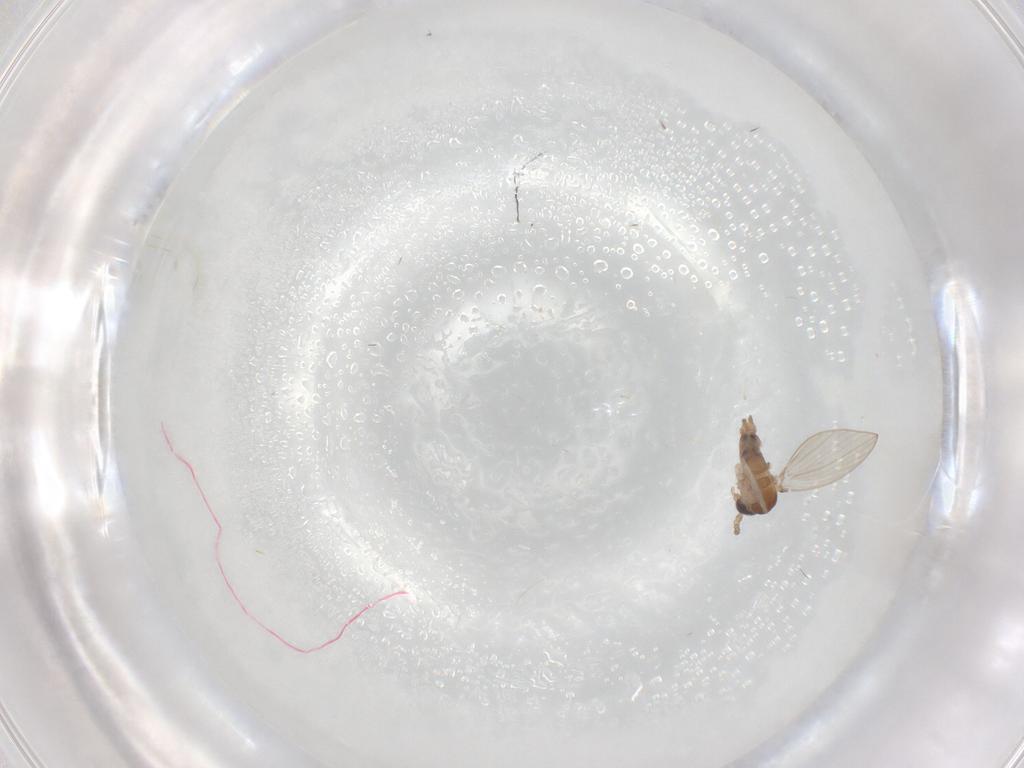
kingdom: Animalia
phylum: Arthropoda
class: Insecta
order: Diptera
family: Psychodidae
